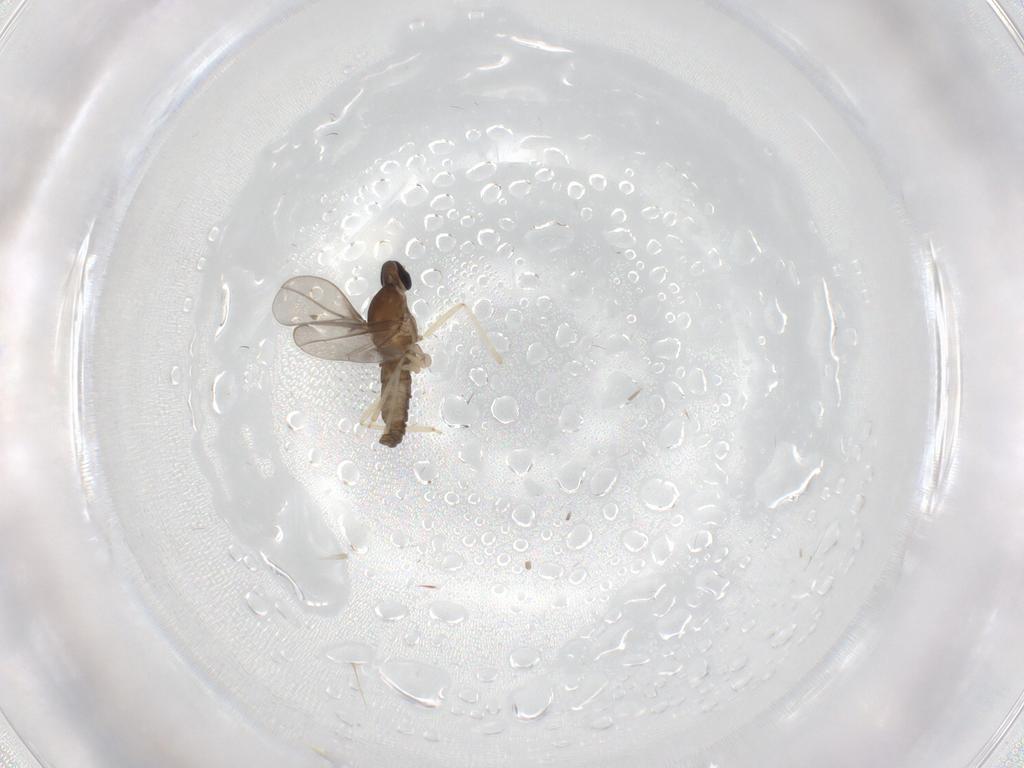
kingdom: Animalia
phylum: Arthropoda
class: Insecta
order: Diptera
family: Cecidomyiidae
